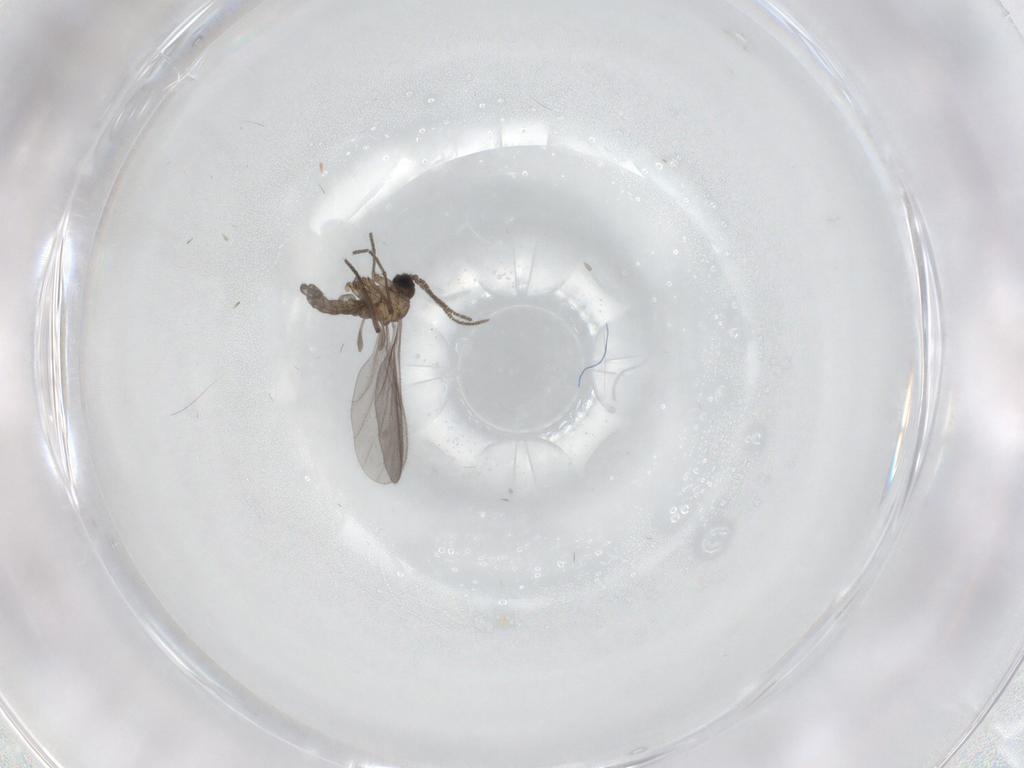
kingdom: Animalia
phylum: Arthropoda
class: Insecta
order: Diptera
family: Sciaridae
